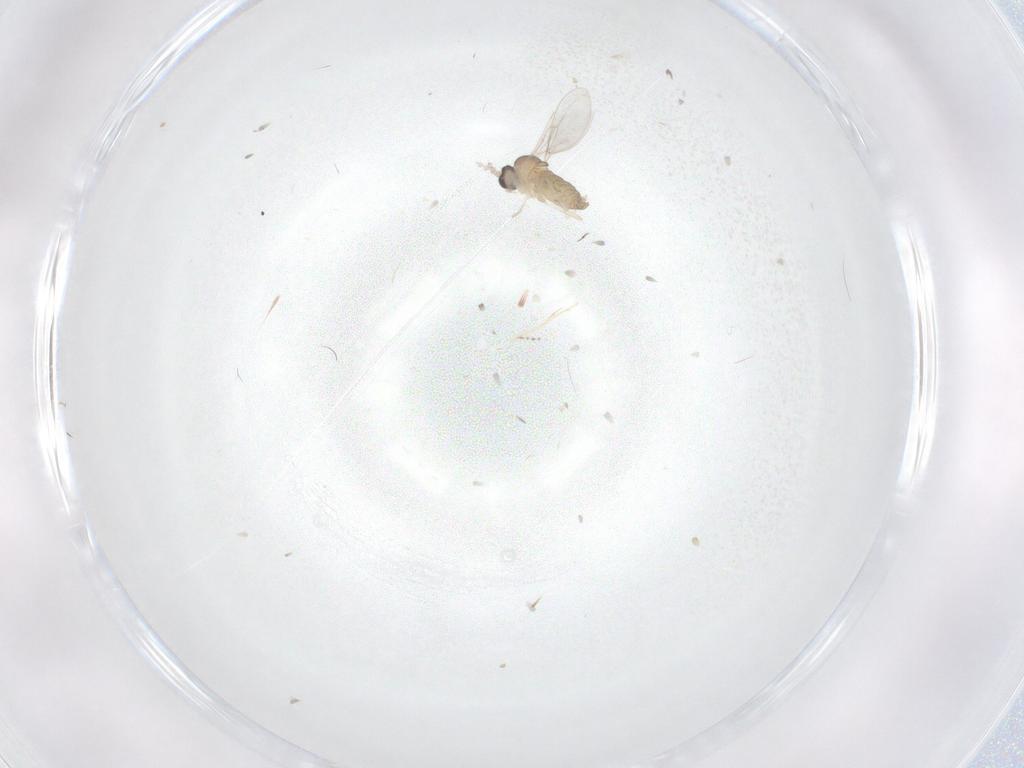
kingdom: Animalia
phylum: Arthropoda
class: Insecta
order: Diptera
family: Cecidomyiidae
